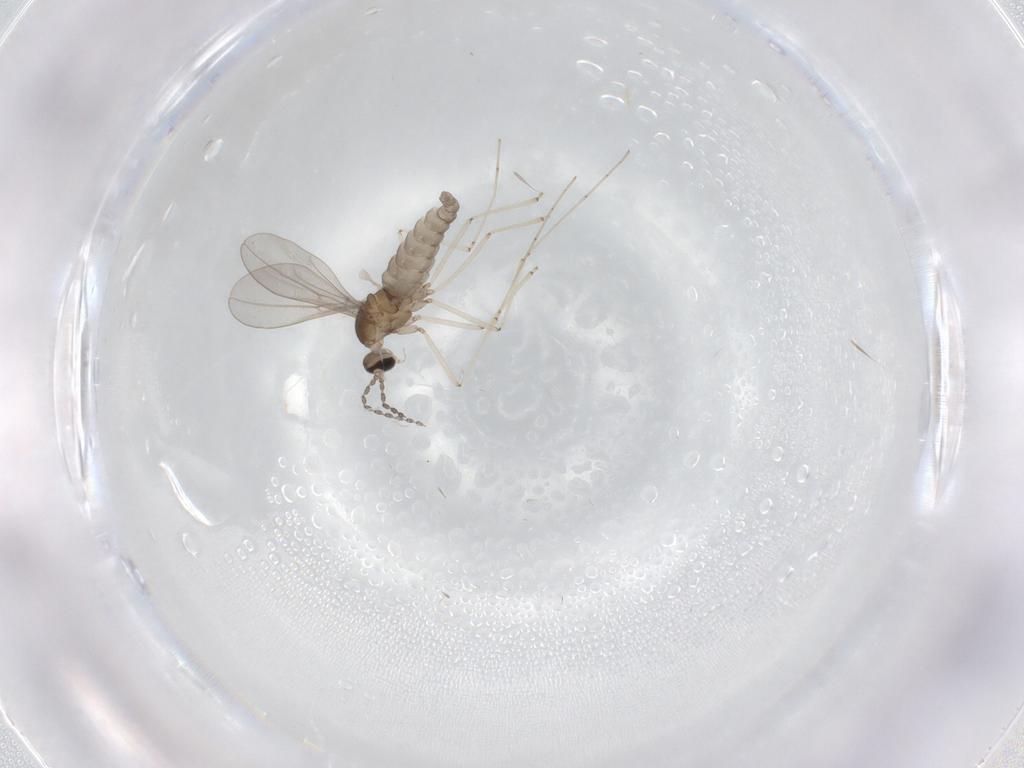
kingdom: Animalia
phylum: Arthropoda
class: Insecta
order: Diptera
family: Cecidomyiidae
